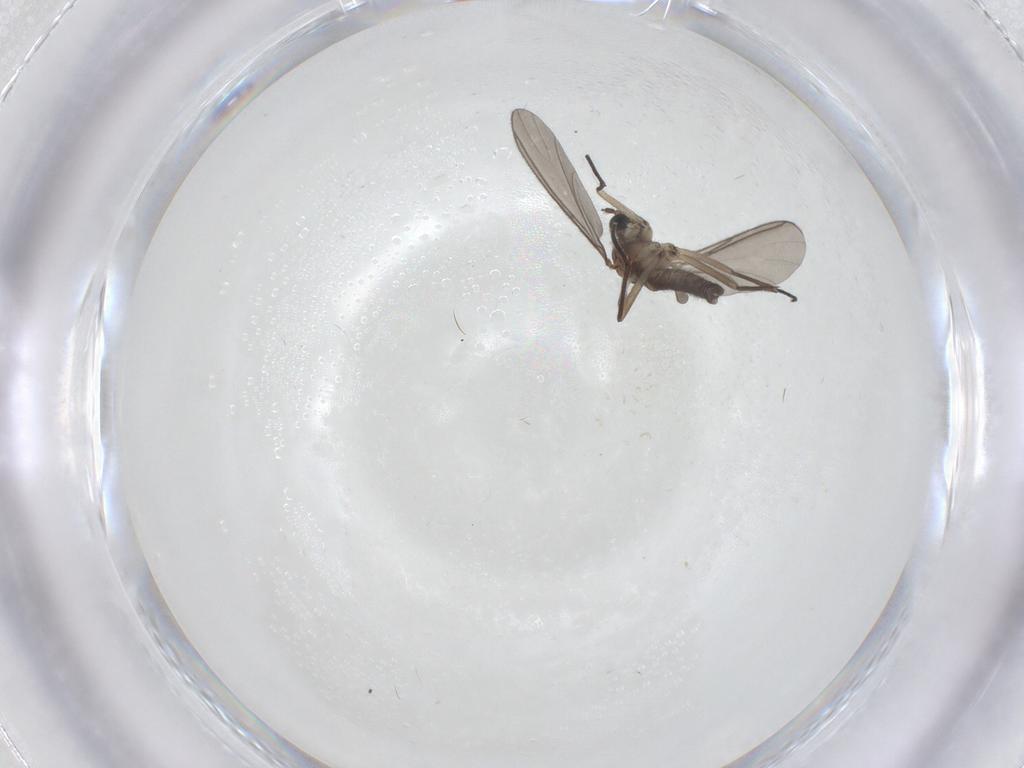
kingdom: Animalia
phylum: Arthropoda
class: Insecta
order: Diptera
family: Sciaridae
